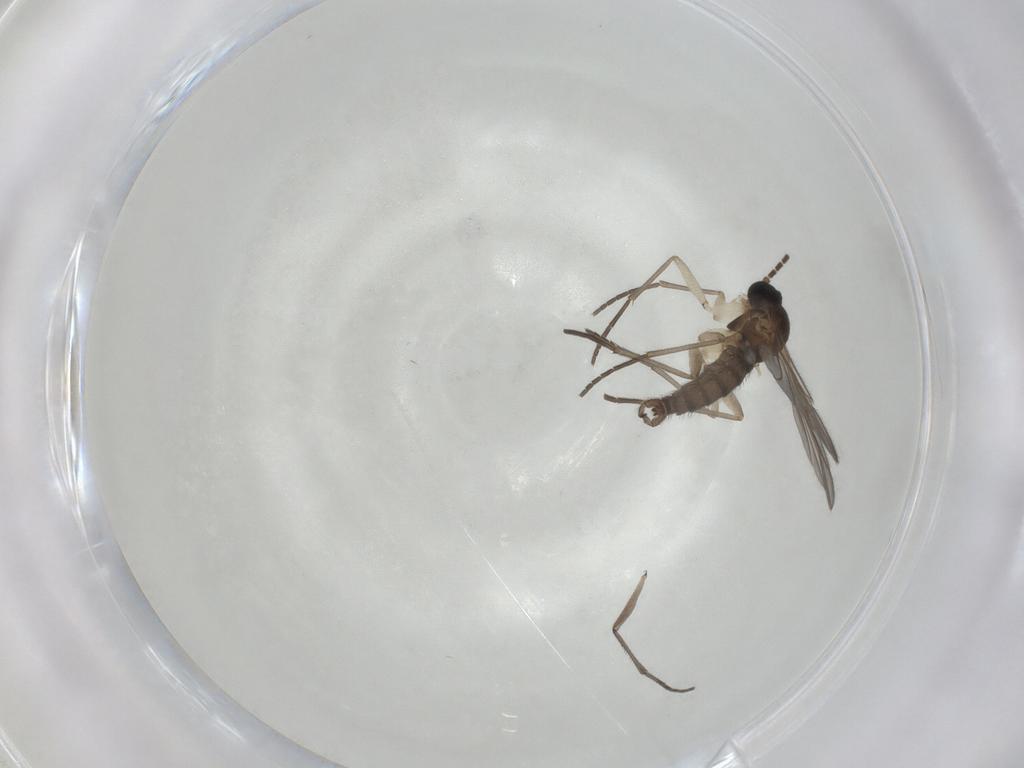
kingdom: Animalia
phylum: Arthropoda
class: Insecta
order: Diptera
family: Sciaridae
